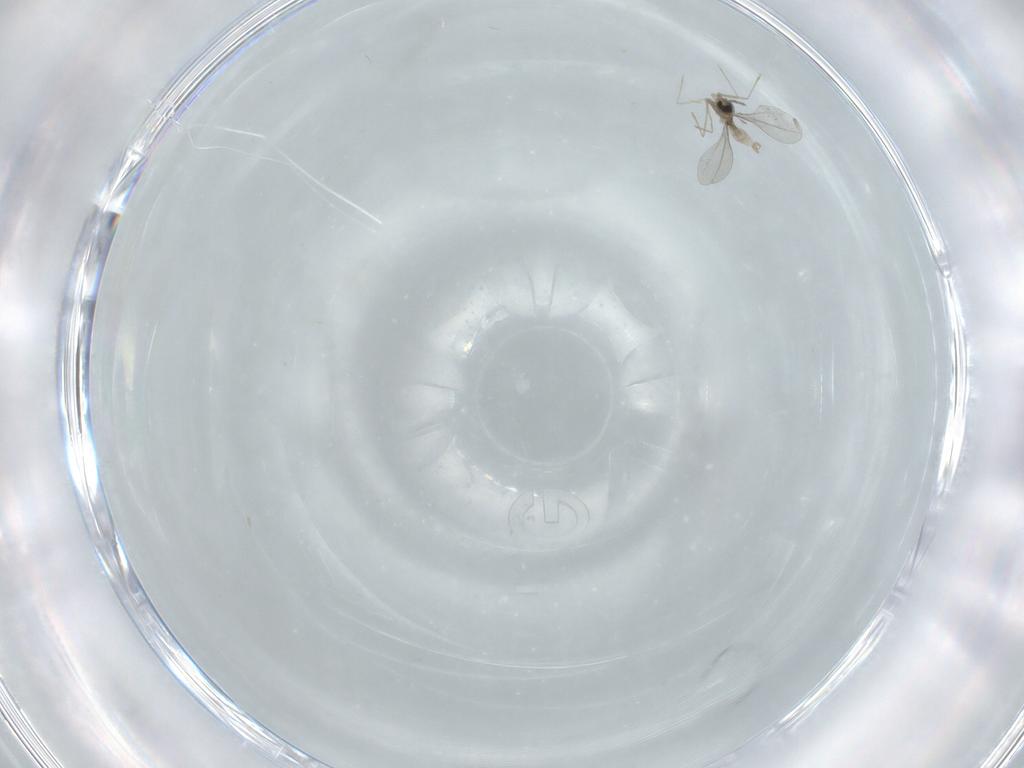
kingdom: Animalia
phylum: Arthropoda
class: Insecta
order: Diptera
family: Cecidomyiidae
